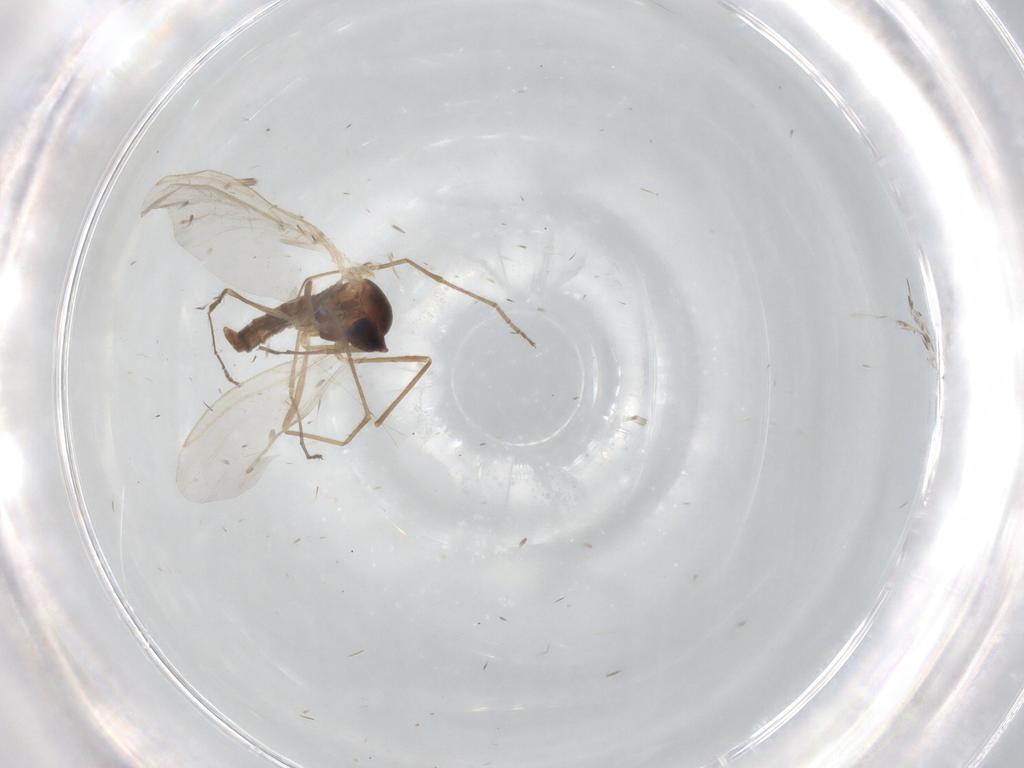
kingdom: Animalia
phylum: Arthropoda
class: Insecta
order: Diptera
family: Cecidomyiidae
